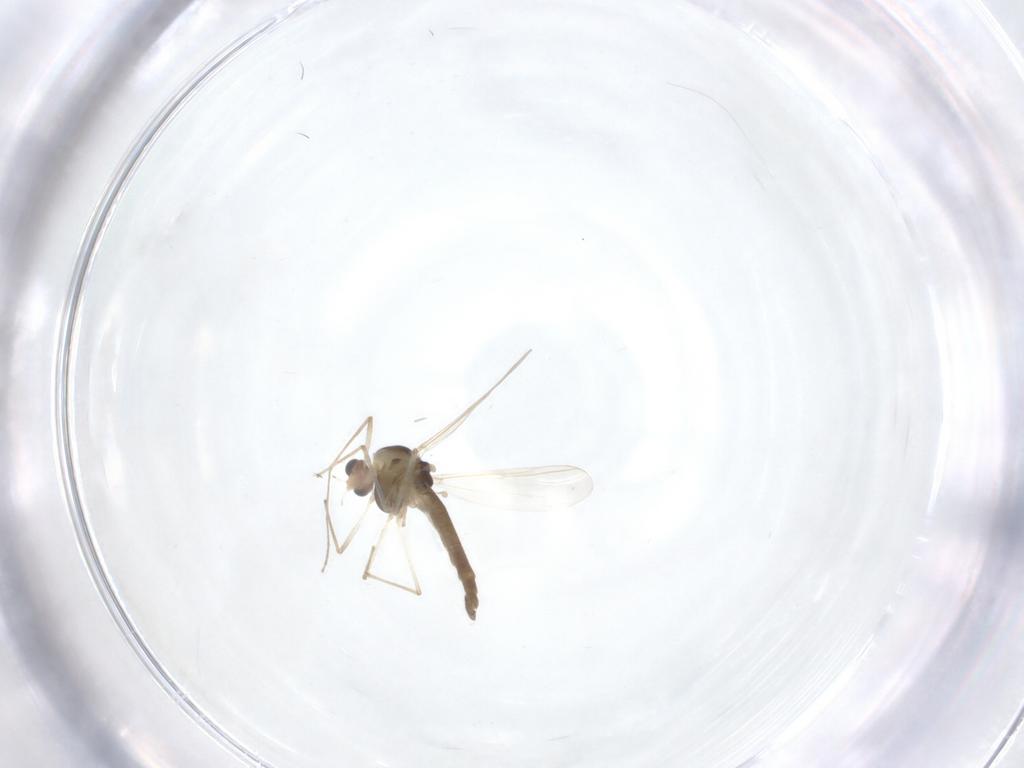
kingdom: Animalia
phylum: Arthropoda
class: Insecta
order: Diptera
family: Chironomidae
